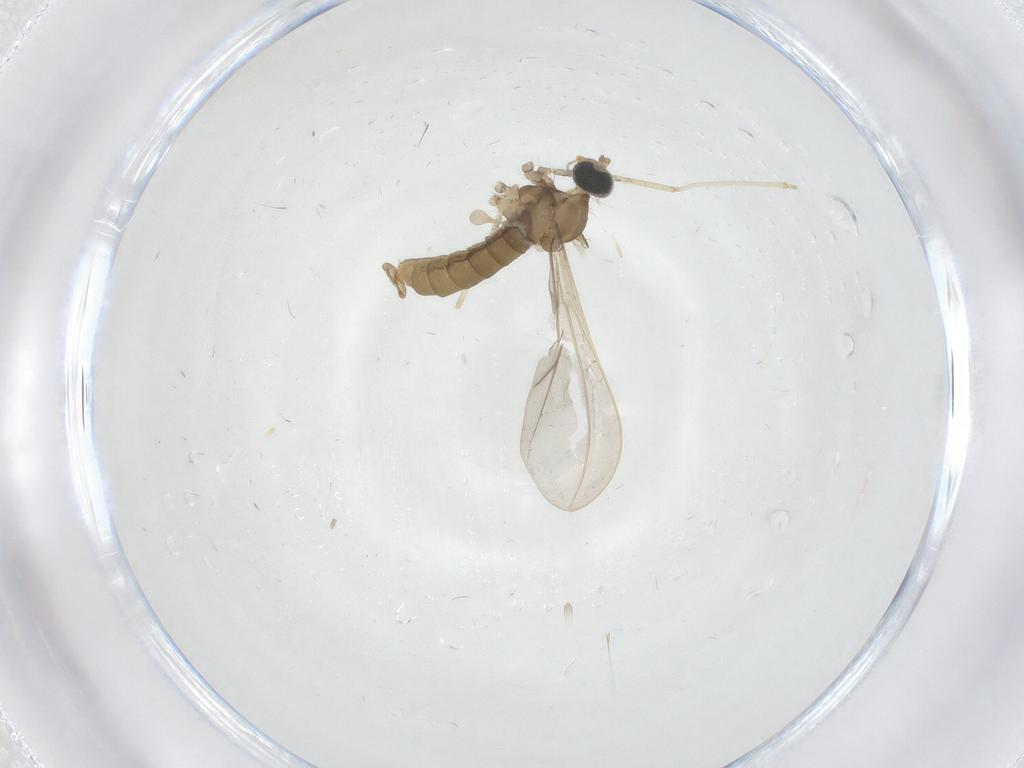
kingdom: Animalia
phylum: Arthropoda
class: Insecta
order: Diptera
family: Cecidomyiidae
